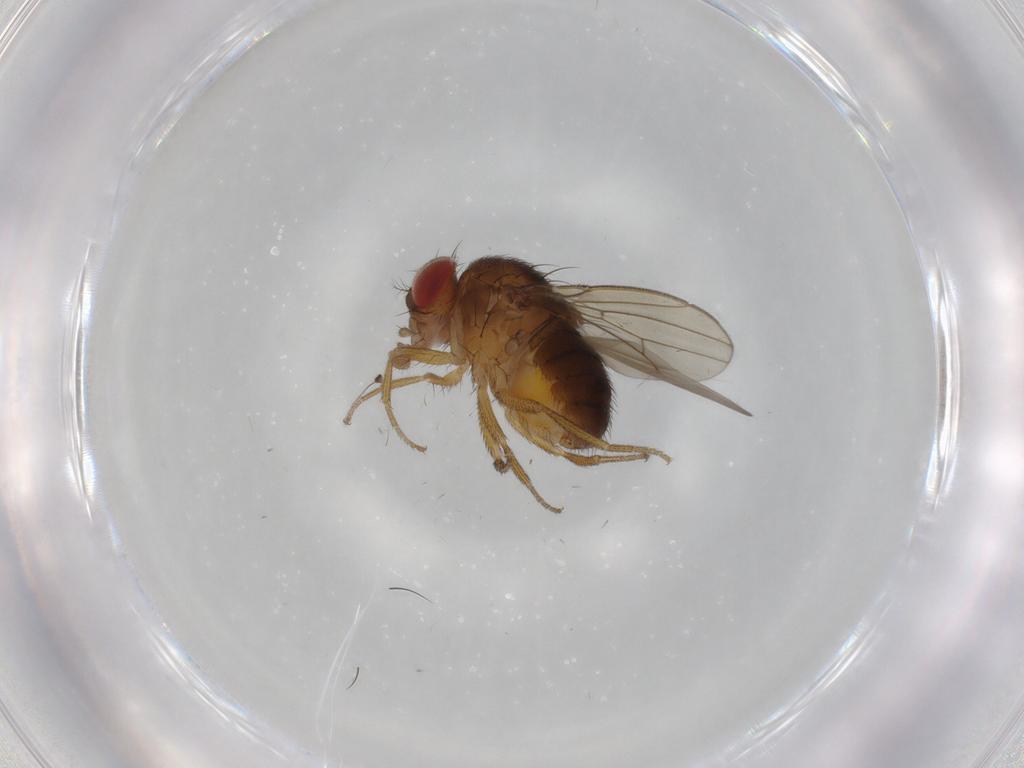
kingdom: Animalia
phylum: Arthropoda
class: Insecta
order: Diptera
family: Drosophilidae
